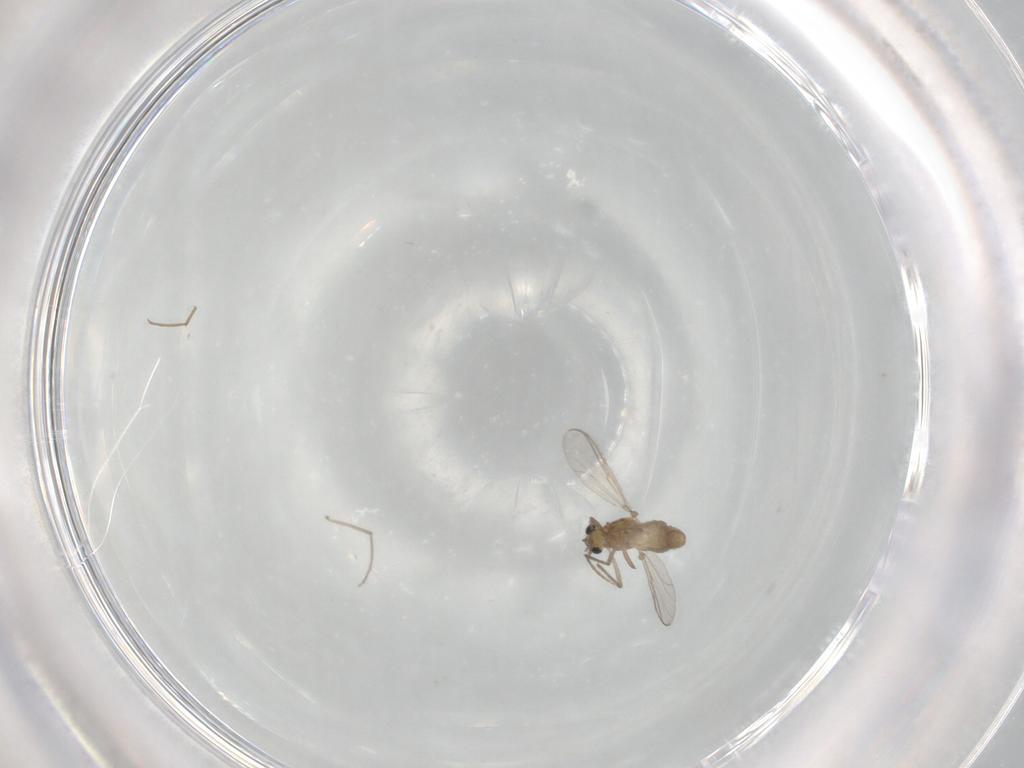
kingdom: Animalia
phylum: Arthropoda
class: Insecta
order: Diptera
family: Chironomidae
